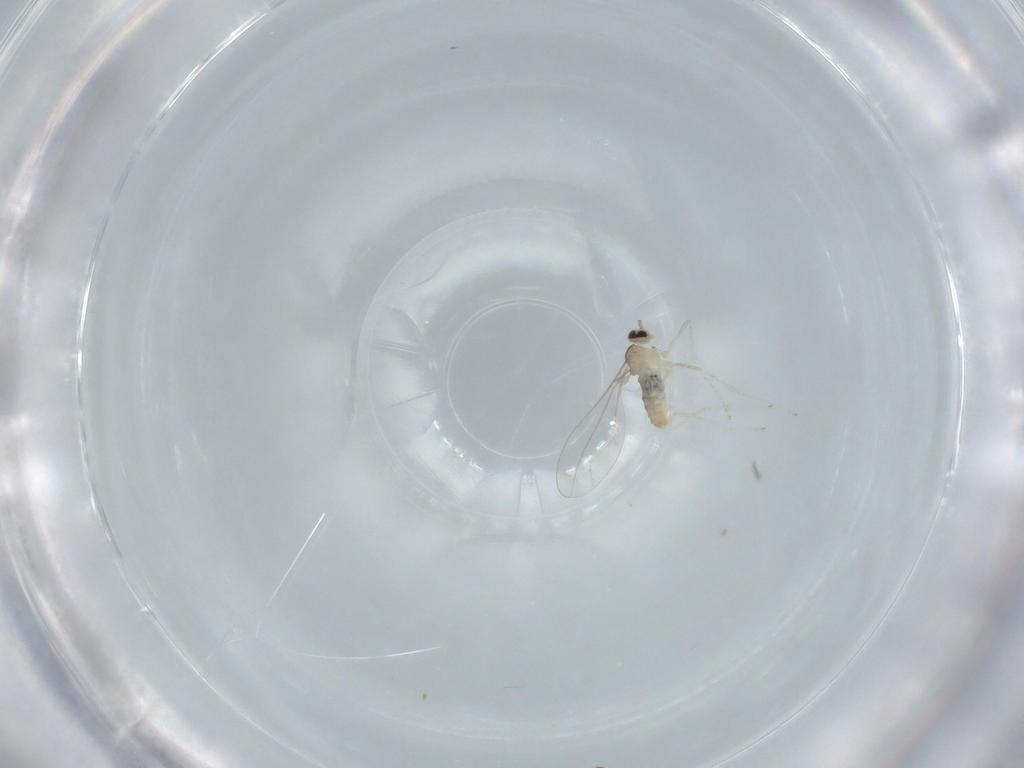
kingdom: Animalia
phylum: Arthropoda
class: Insecta
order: Diptera
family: Cecidomyiidae
